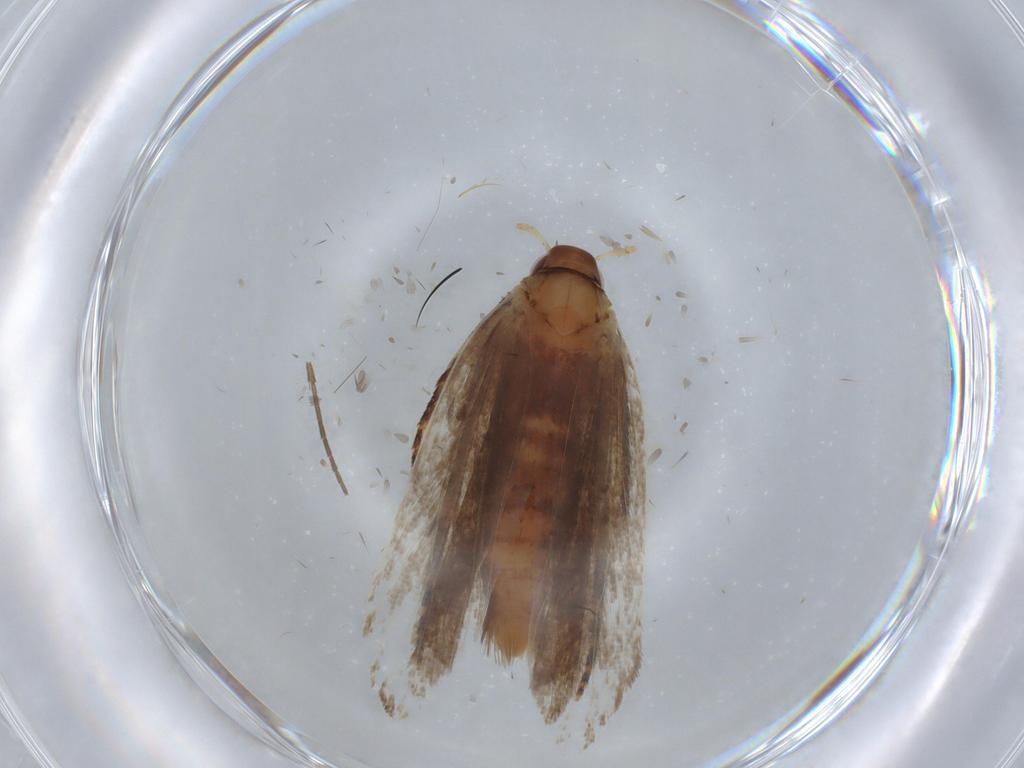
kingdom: Animalia
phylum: Arthropoda
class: Insecta
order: Lepidoptera
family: Gelechiidae
